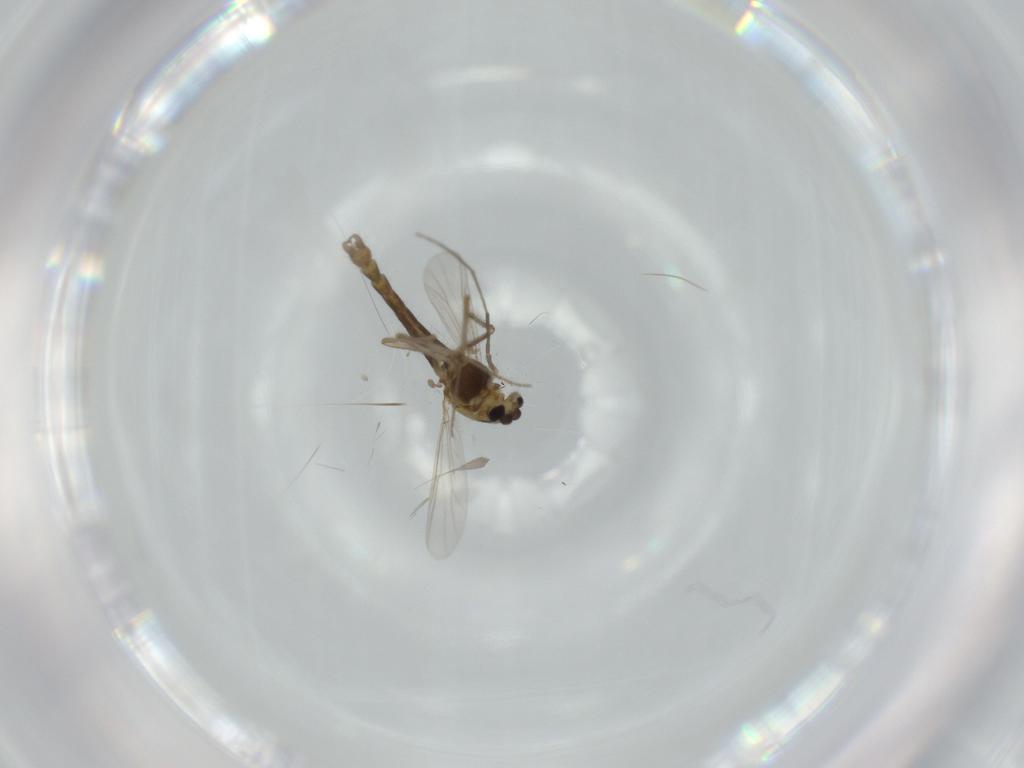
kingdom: Animalia
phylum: Arthropoda
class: Insecta
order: Diptera
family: Chironomidae
